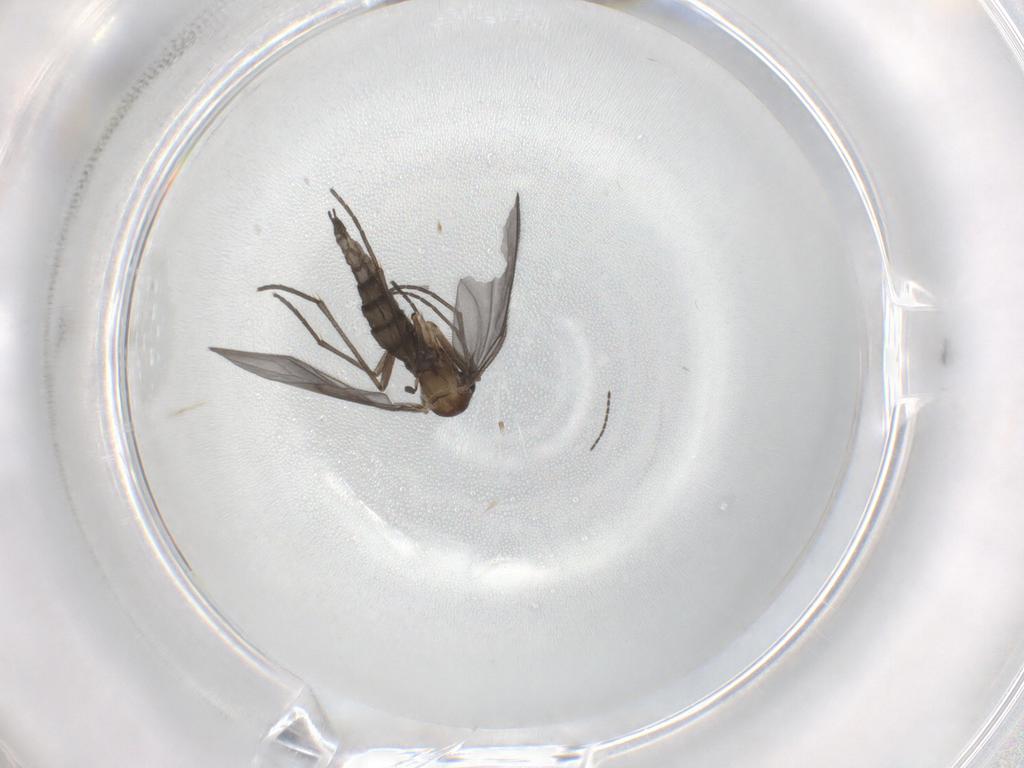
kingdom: Animalia
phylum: Arthropoda
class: Insecta
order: Diptera
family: Sciaridae
